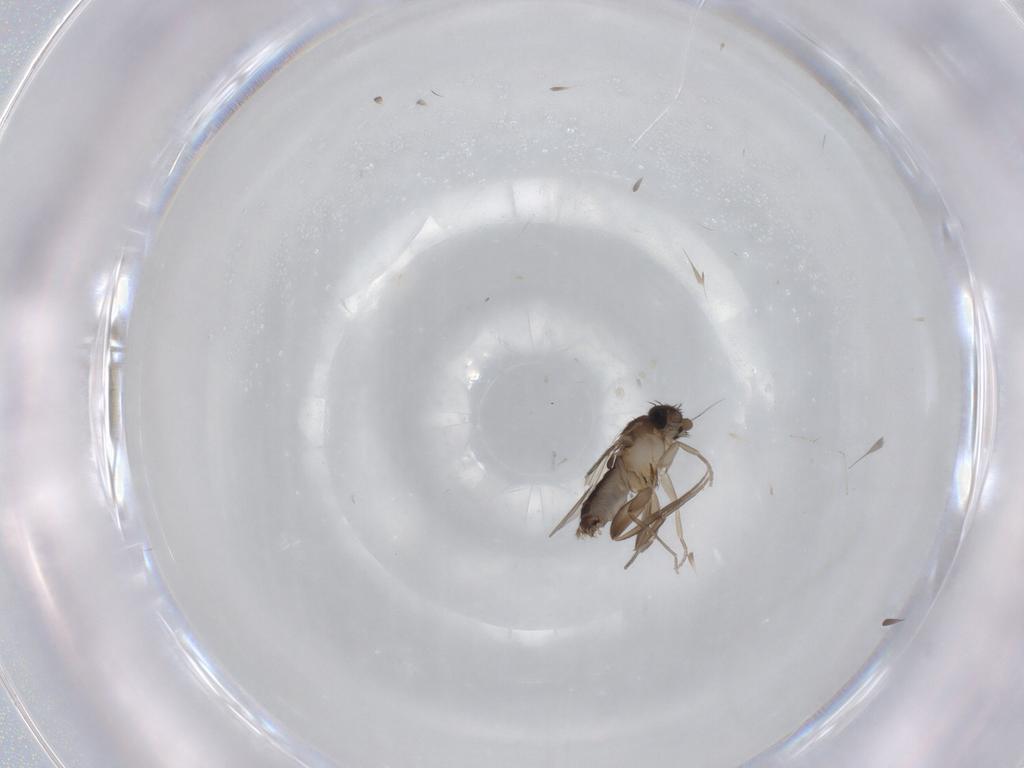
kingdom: Animalia
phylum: Arthropoda
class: Insecta
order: Diptera
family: Phoridae
